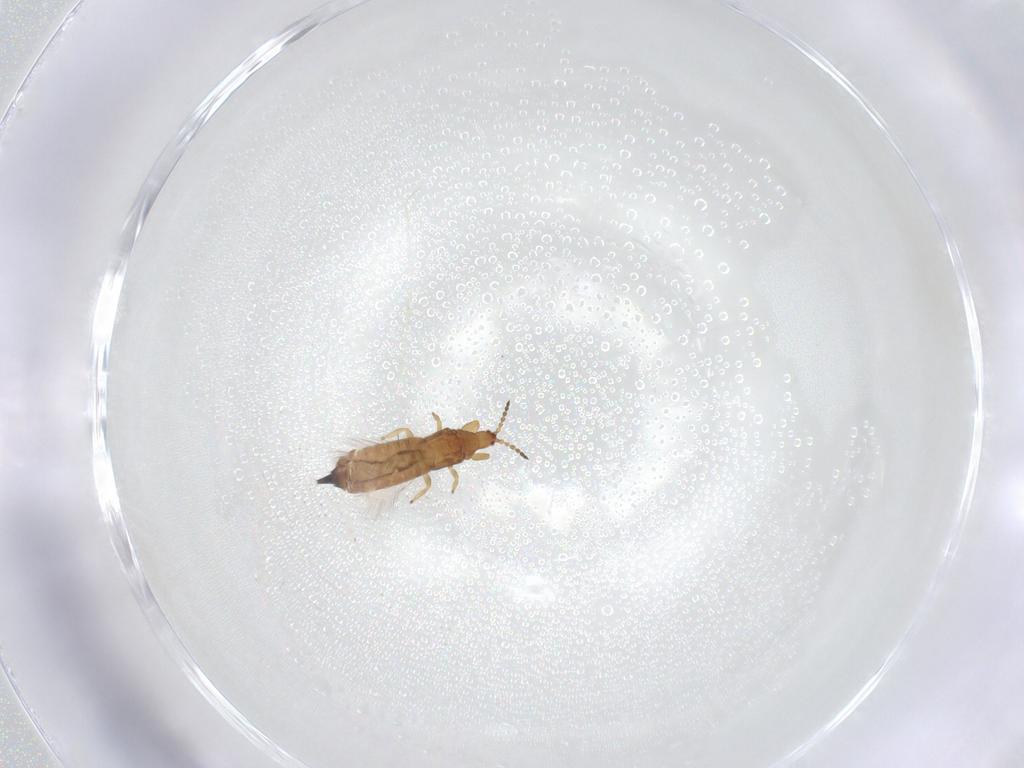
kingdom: Animalia
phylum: Arthropoda
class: Insecta
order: Thysanoptera
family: Phlaeothripidae
